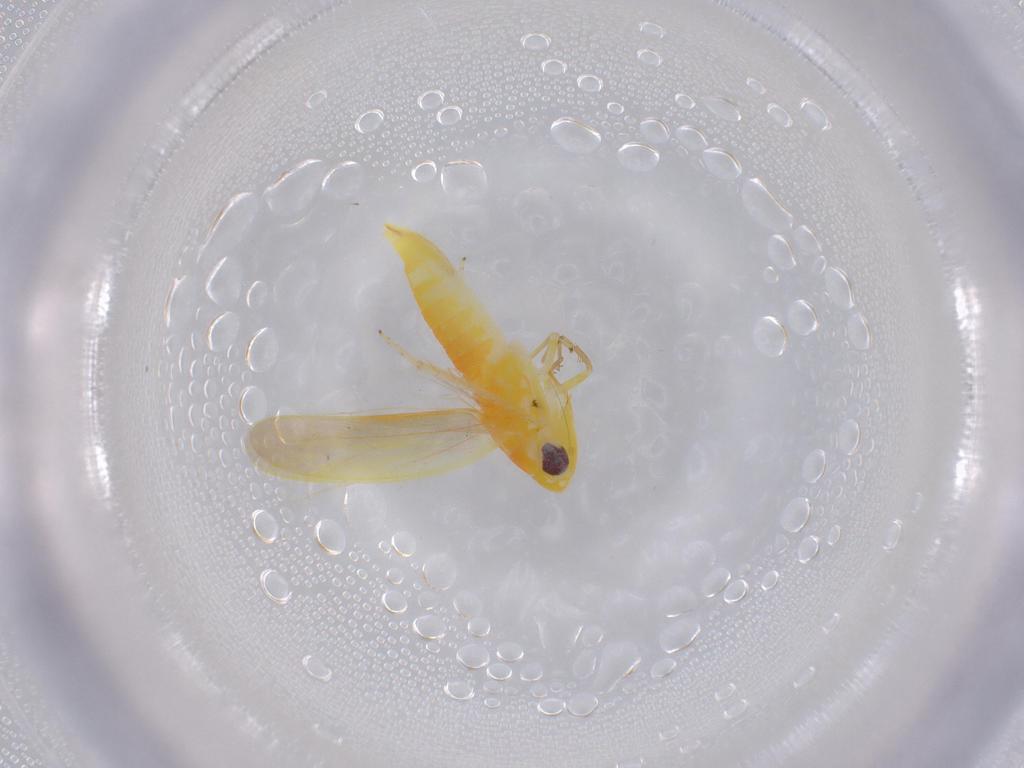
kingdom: Animalia
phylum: Arthropoda
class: Insecta
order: Hemiptera
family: Cicadellidae
